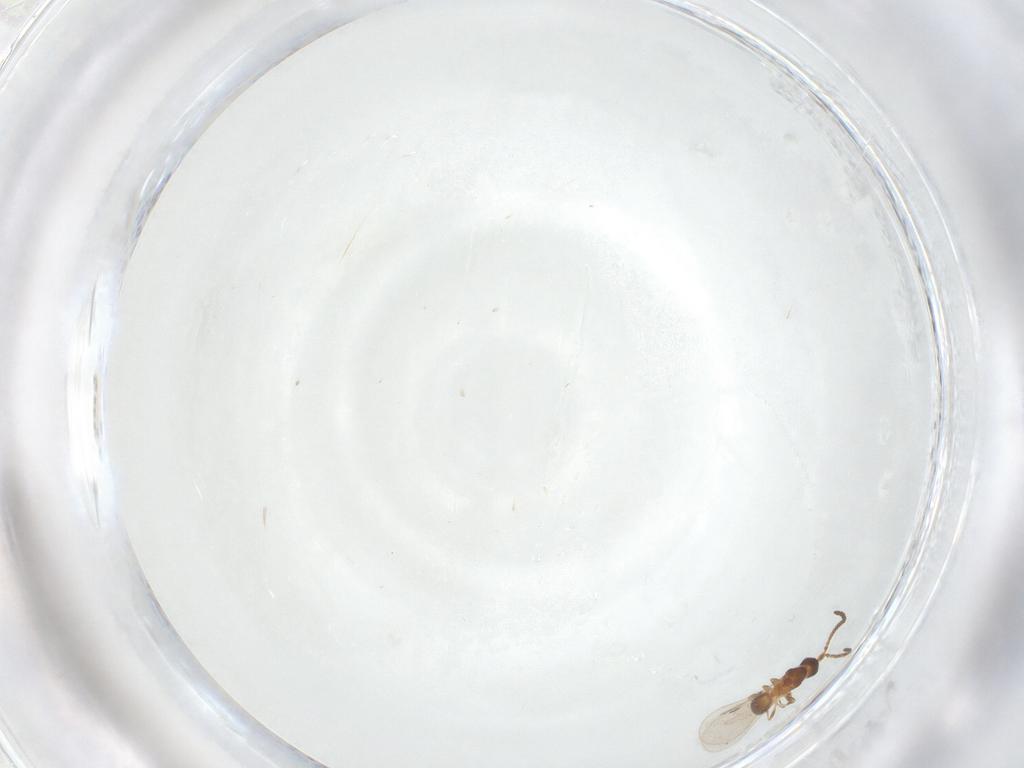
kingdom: Animalia
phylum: Arthropoda
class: Insecta
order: Hymenoptera
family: Diapriidae
